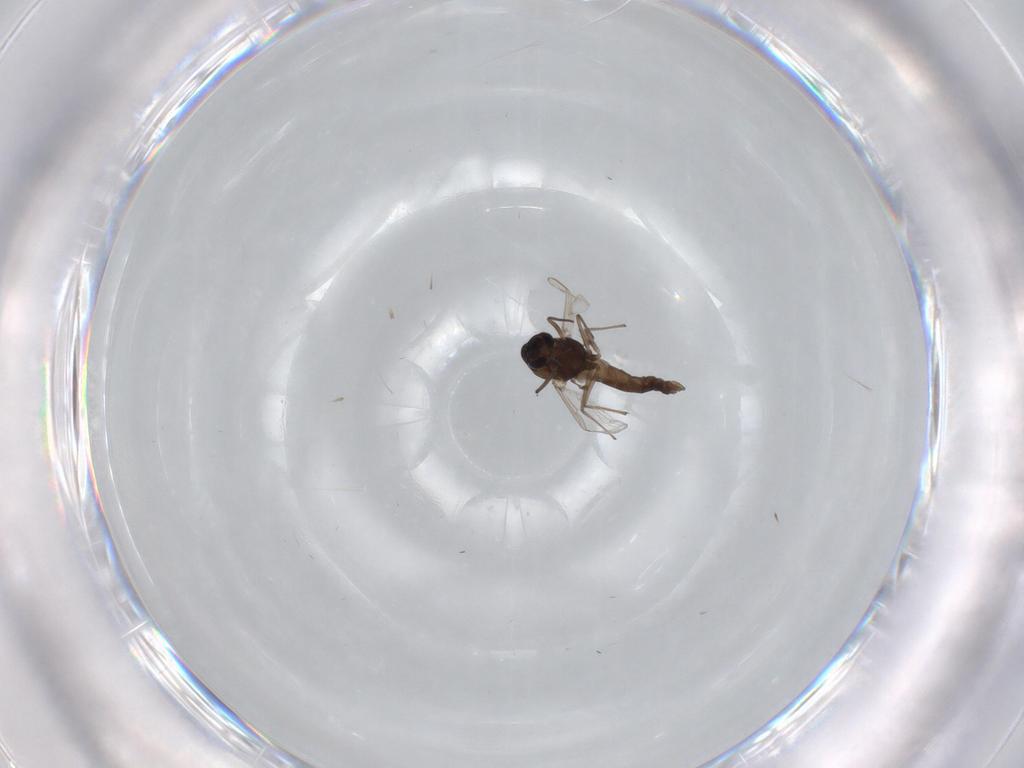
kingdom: Animalia
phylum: Arthropoda
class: Insecta
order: Diptera
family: Chironomidae
